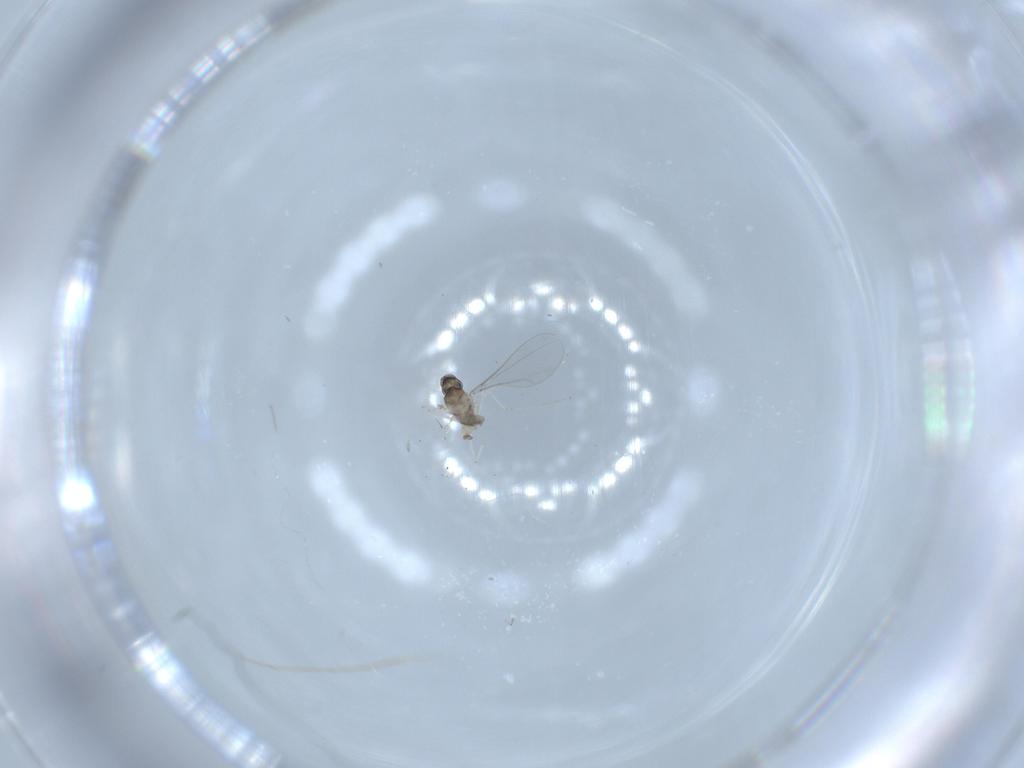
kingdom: Animalia
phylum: Arthropoda
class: Insecta
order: Diptera
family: Cecidomyiidae
